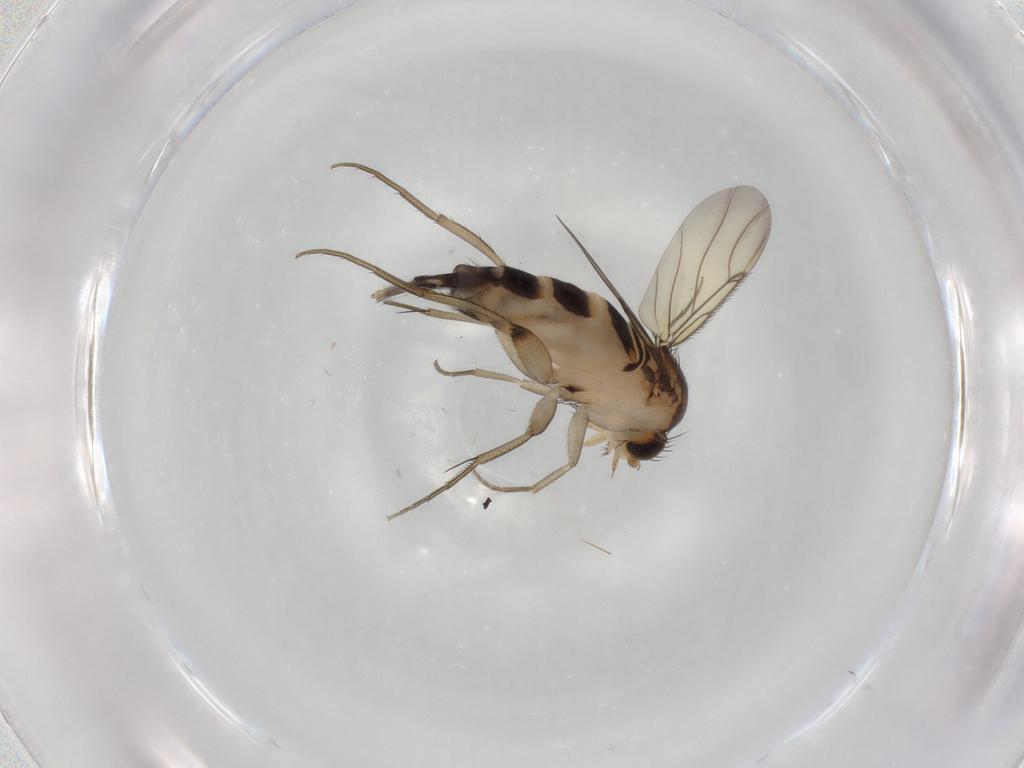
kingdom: Animalia
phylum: Arthropoda
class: Insecta
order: Diptera
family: Phoridae
